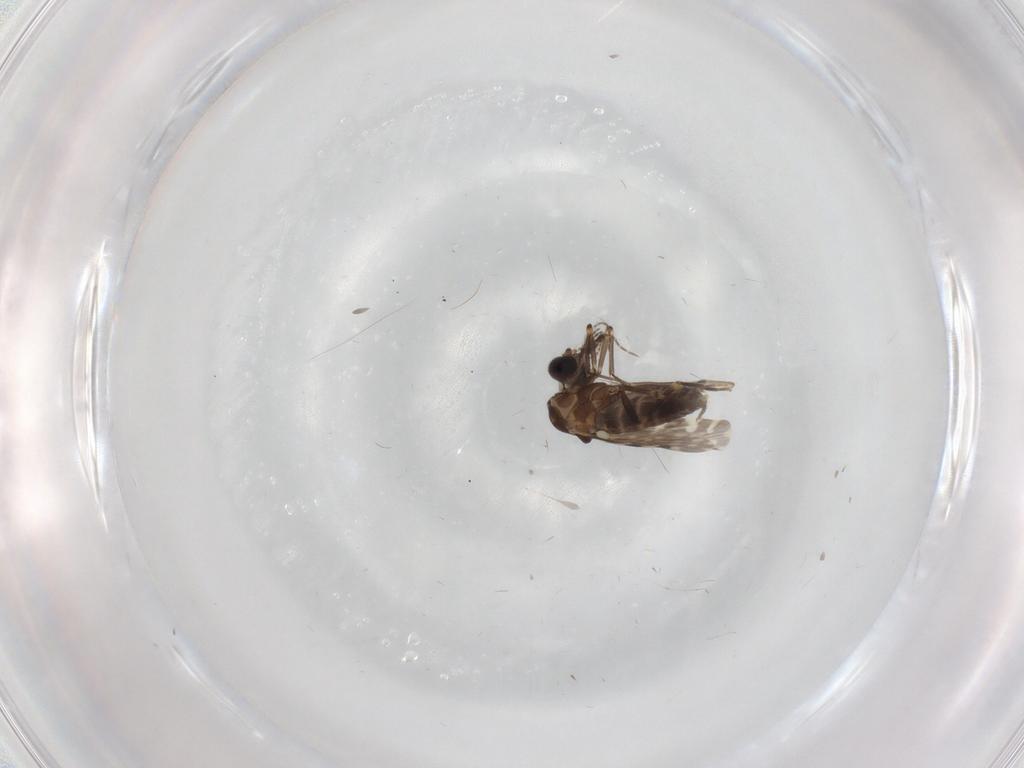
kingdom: Animalia
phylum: Arthropoda
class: Insecta
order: Diptera
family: Ceratopogonidae
